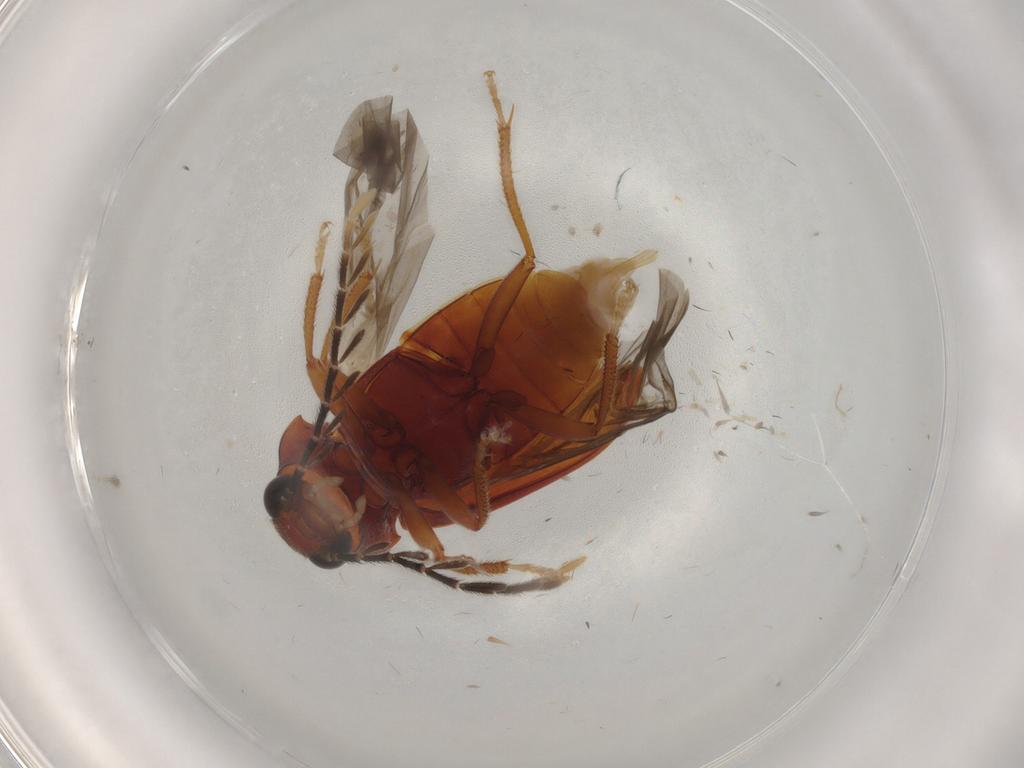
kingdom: Animalia
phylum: Arthropoda
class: Insecta
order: Coleoptera
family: Ptilodactylidae
